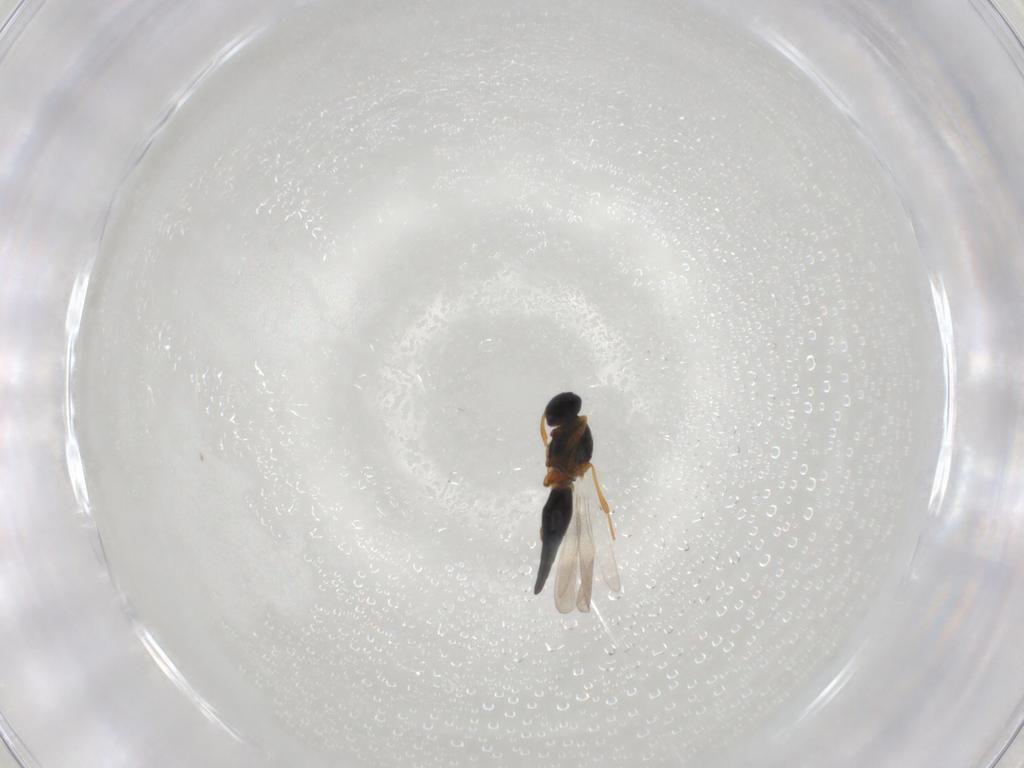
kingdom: Animalia
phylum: Arthropoda
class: Insecta
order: Hymenoptera
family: Platygastridae
